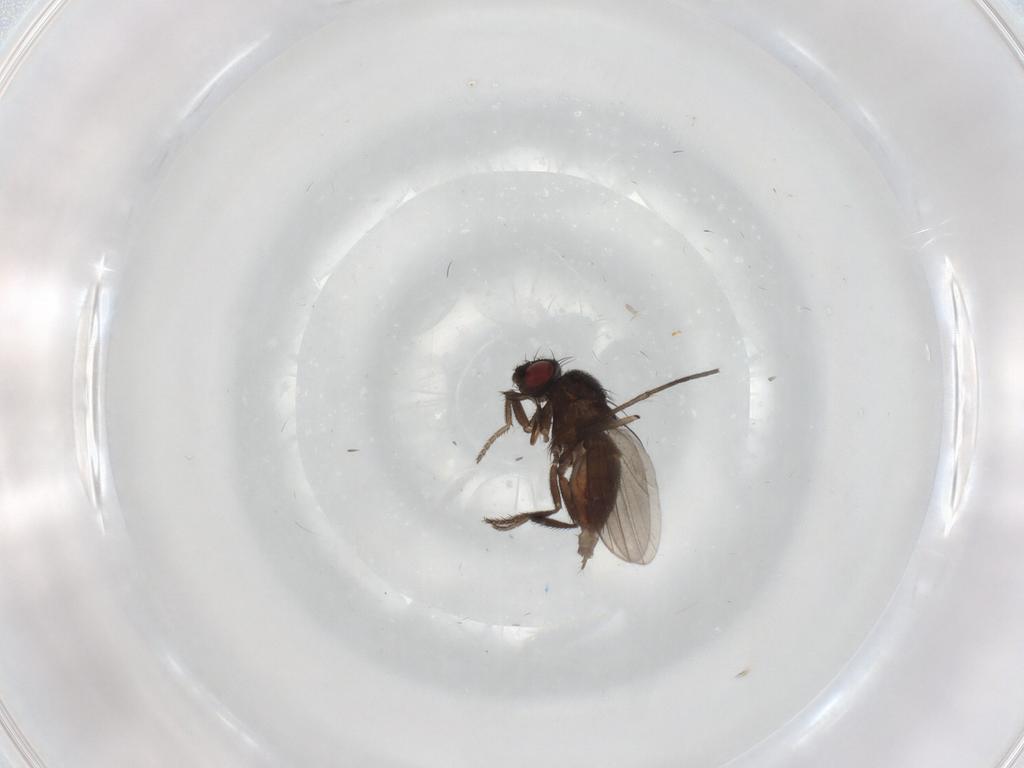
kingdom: Animalia
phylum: Arthropoda
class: Insecta
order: Diptera
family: Milichiidae
